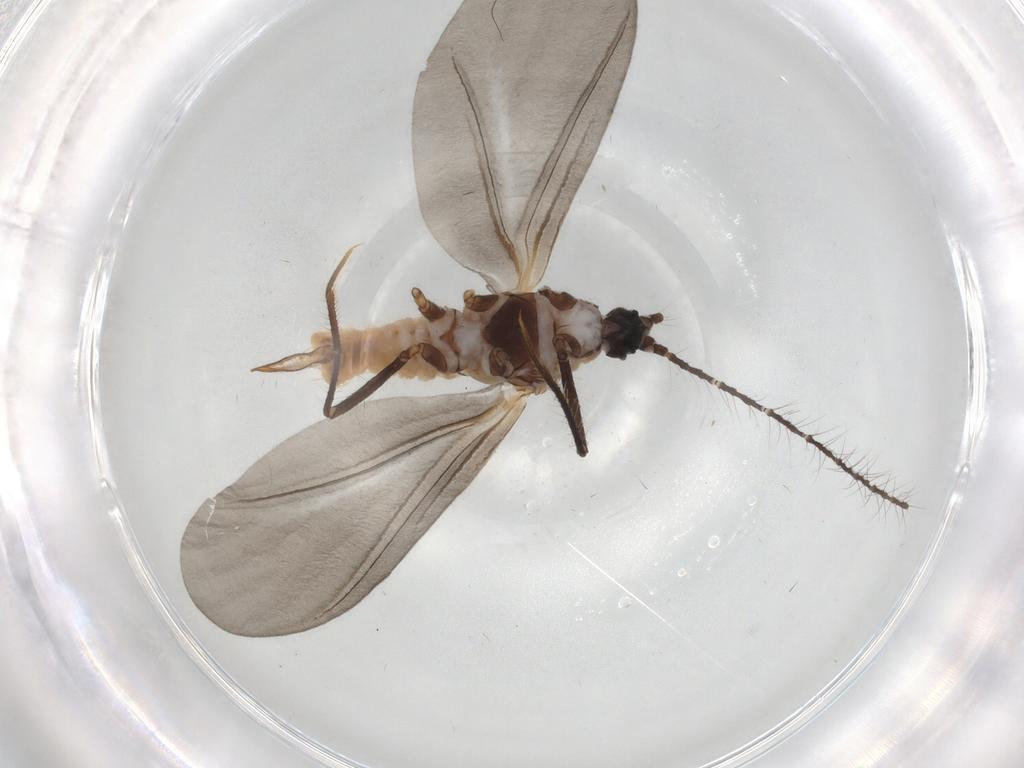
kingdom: Animalia
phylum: Arthropoda
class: Insecta
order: Hemiptera
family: Putoidae
